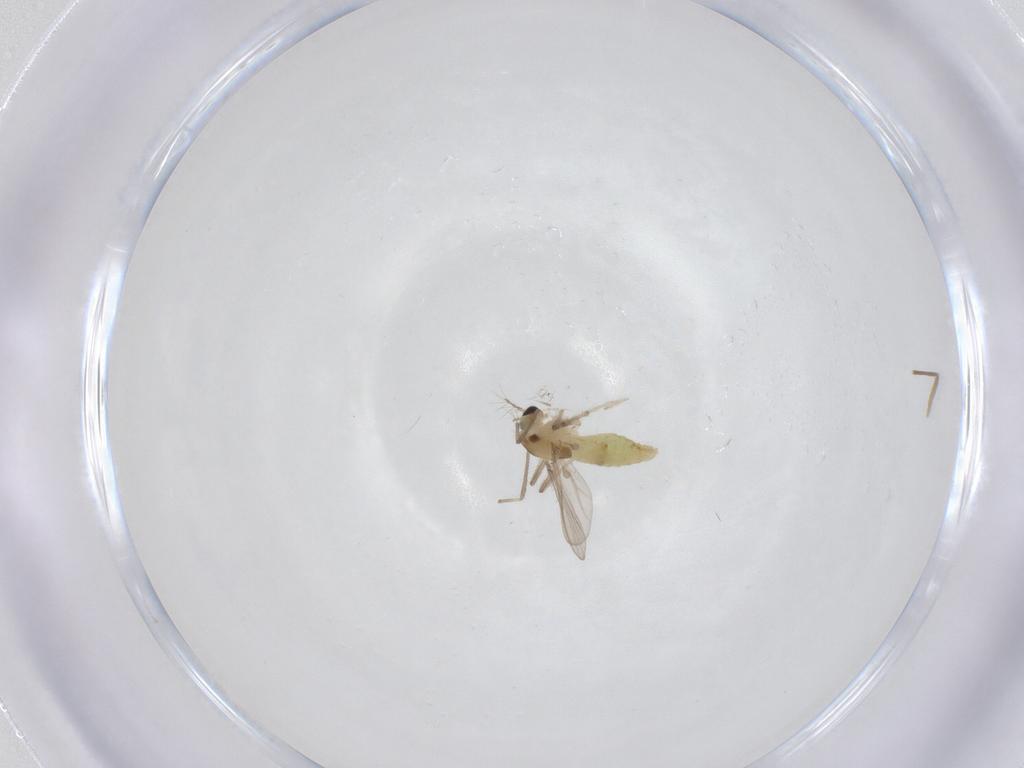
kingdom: Animalia
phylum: Arthropoda
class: Insecta
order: Diptera
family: Chironomidae
